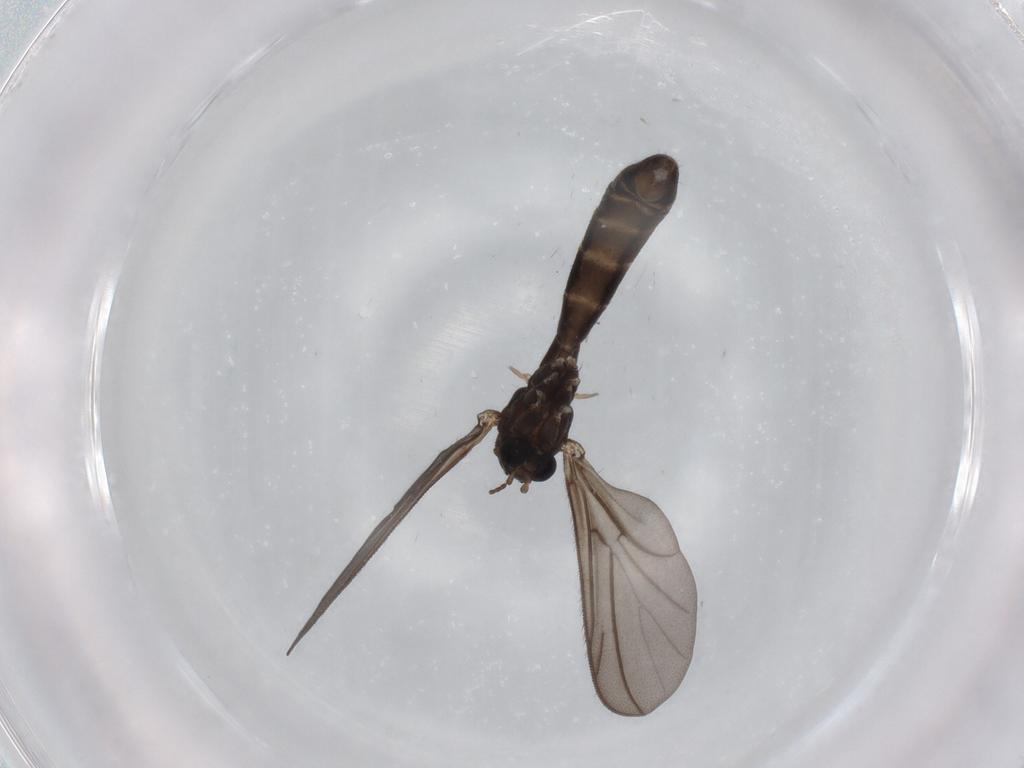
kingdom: Animalia
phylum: Arthropoda
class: Insecta
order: Diptera
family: Keroplatidae
